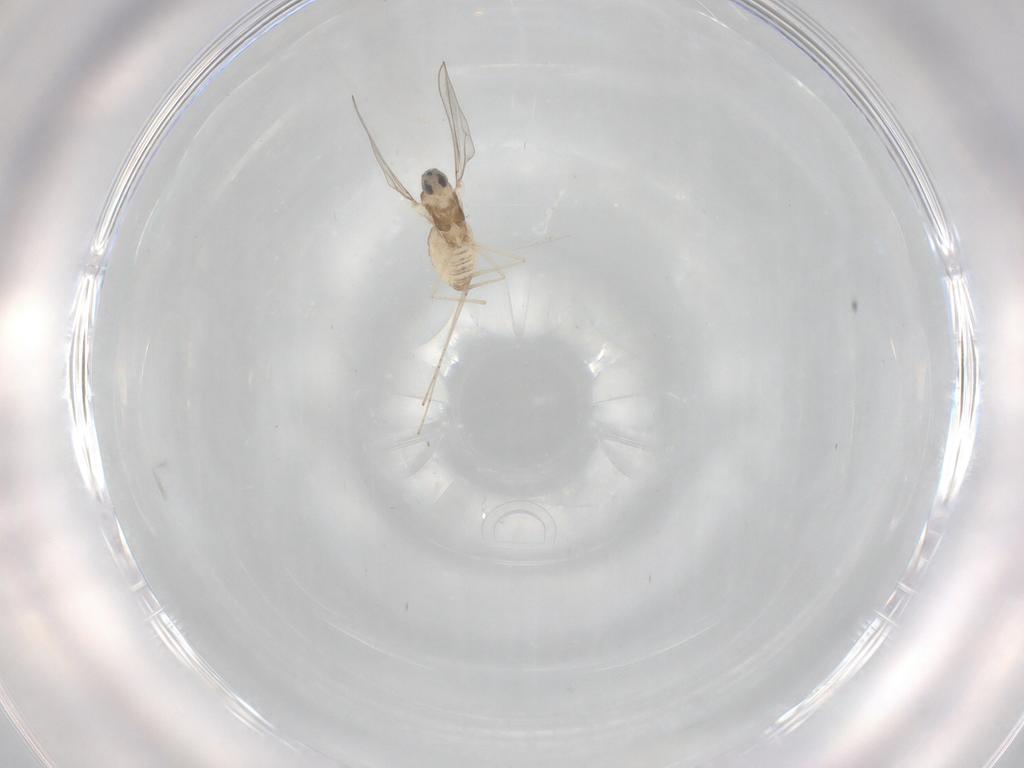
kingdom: Animalia
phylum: Arthropoda
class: Insecta
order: Diptera
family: Cecidomyiidae
